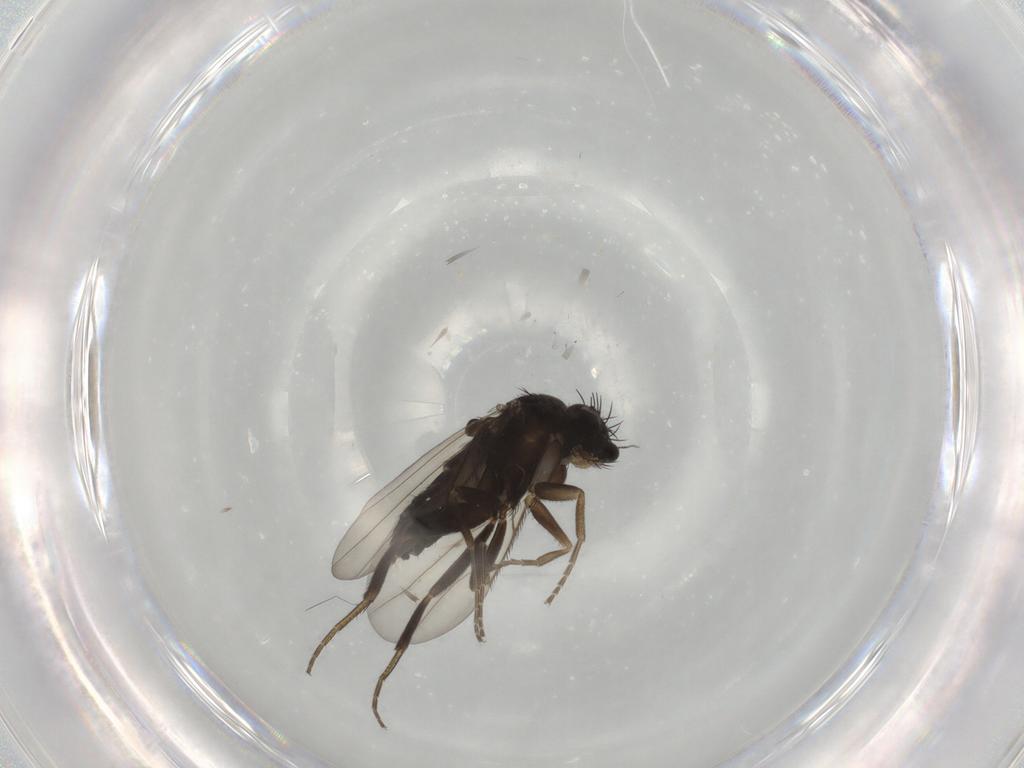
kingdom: Animalia
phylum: Arthropoda
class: Insecta
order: Diptera
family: Phoridae
